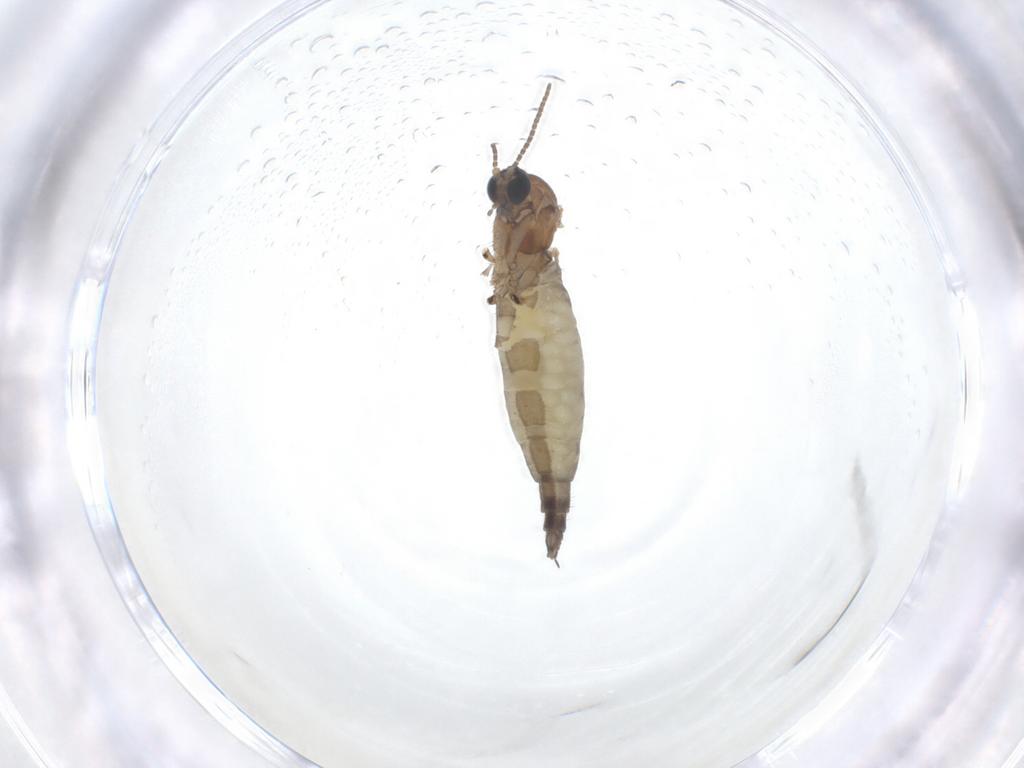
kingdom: Animalia
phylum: Arthropoda
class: Insecta
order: Diptera
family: Sciaridae
